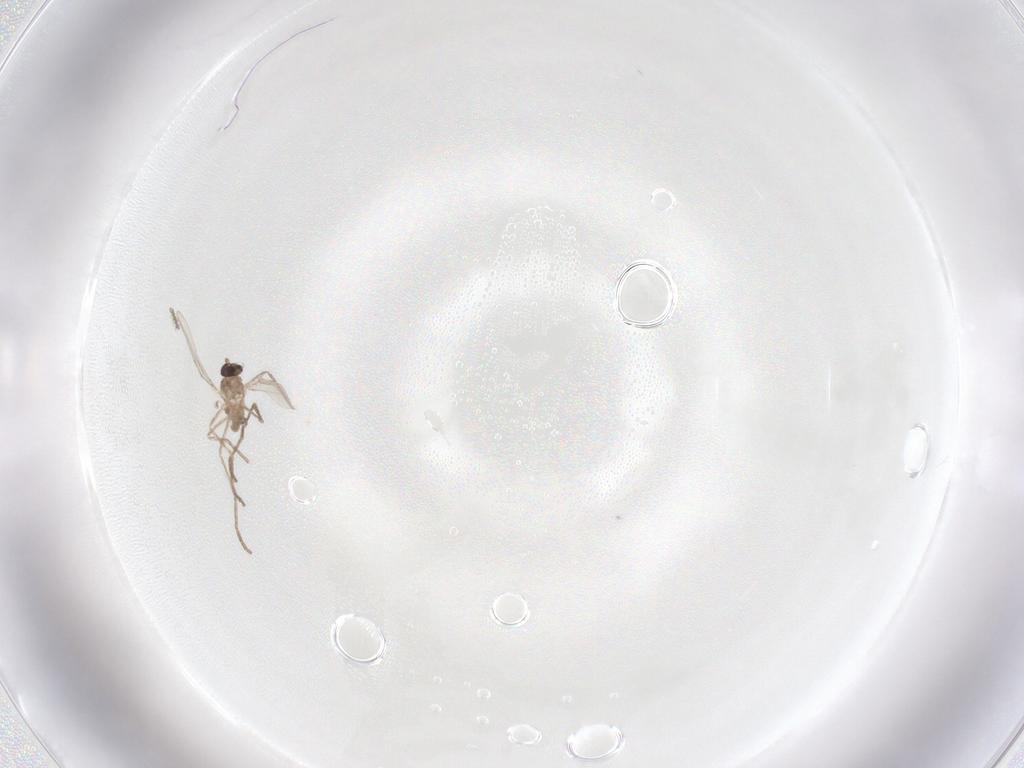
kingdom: Animalia
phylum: Arthropoda
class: Insecta
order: Diptera
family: Cecidomyiidae
